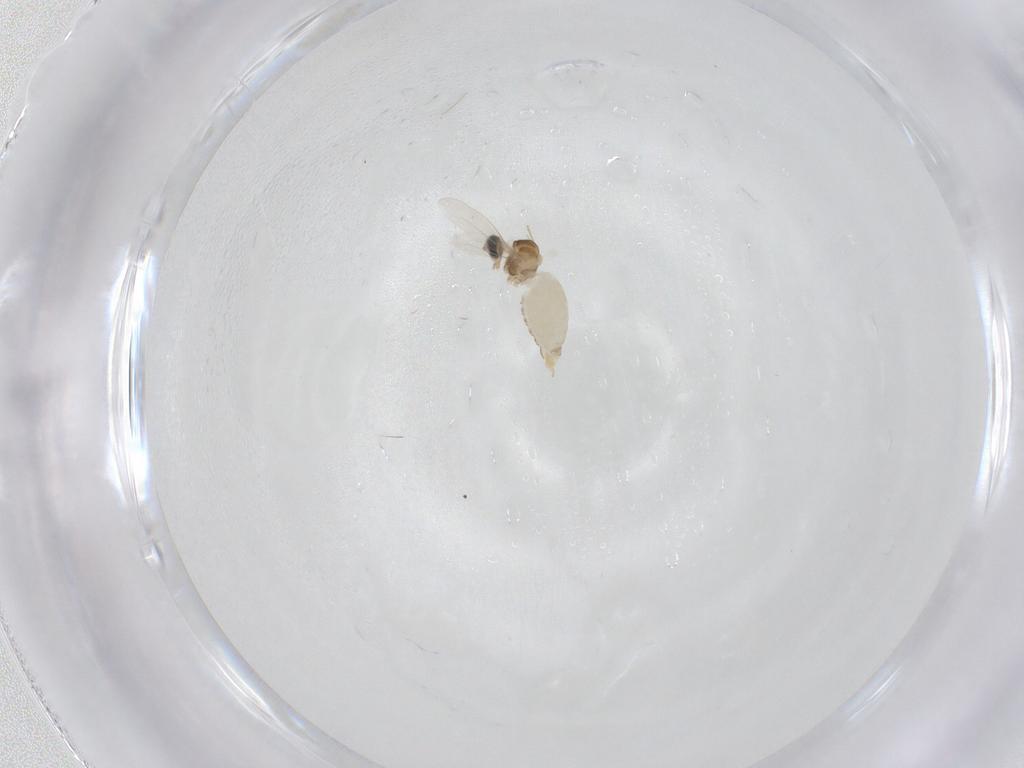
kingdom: Animalia
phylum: Arthropoda
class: Insecta
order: Diptera
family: Cecidomyiidae
